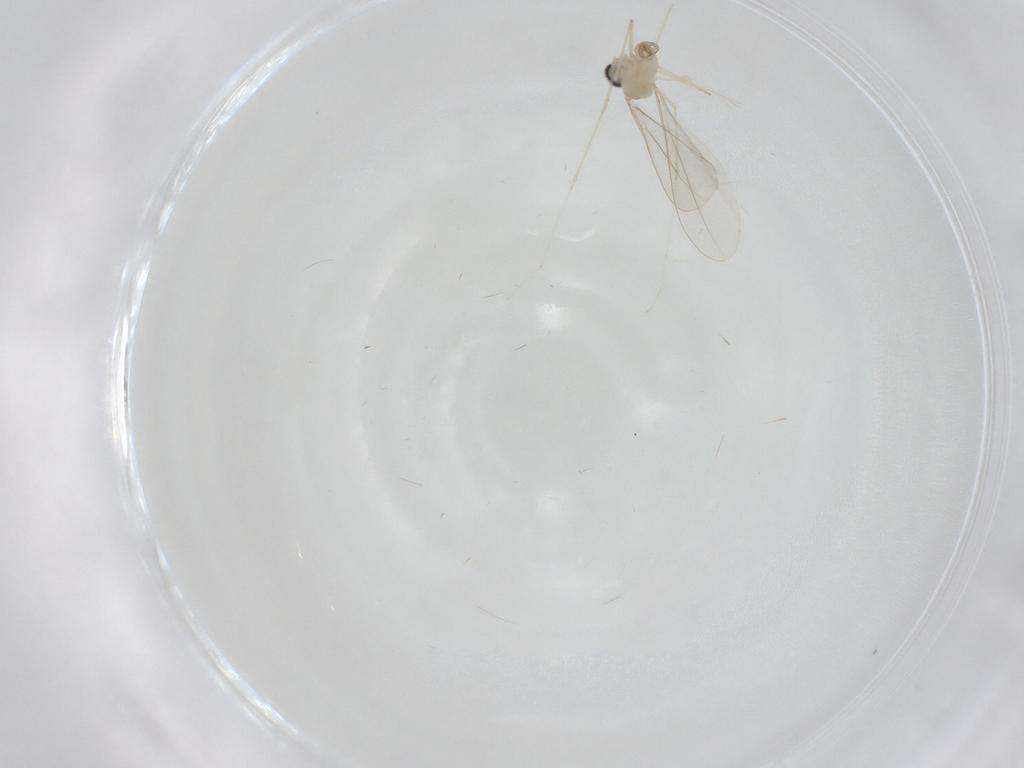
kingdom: Animalia
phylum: Arthropoda
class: Insecta
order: Diptera
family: Cecidomyiidae
